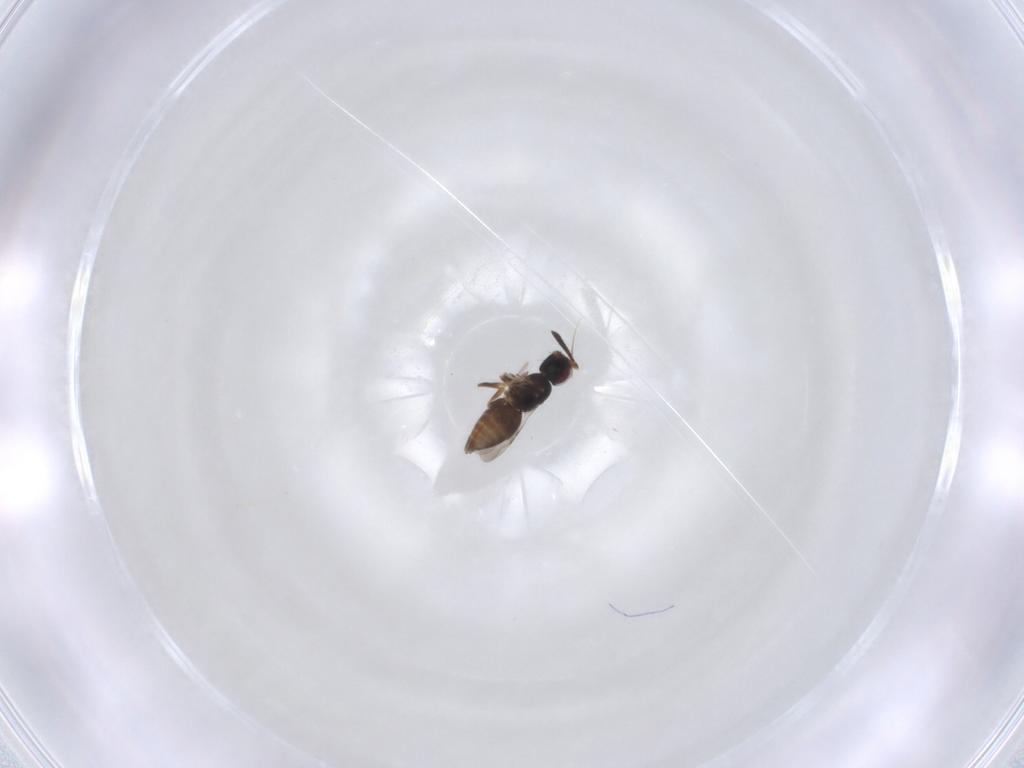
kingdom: Animalia
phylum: Arthropoda
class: Insecta
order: Hymenoptera
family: Ceraphronidae
